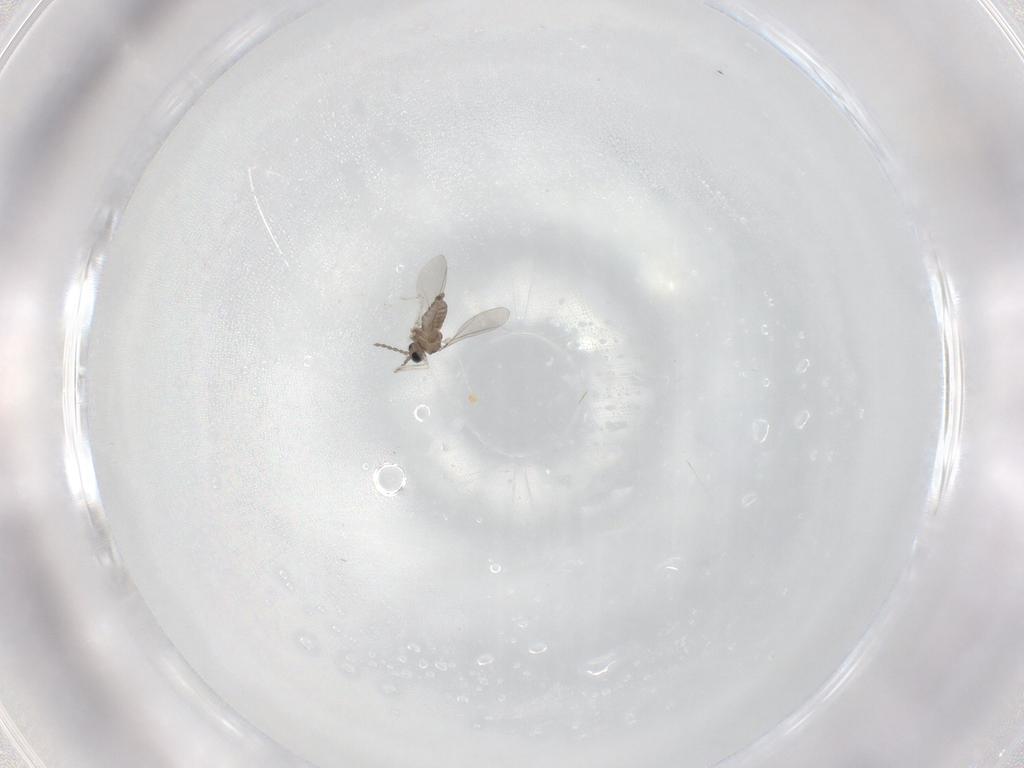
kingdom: Animalia
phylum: Arthropoda
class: Insecta
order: Diptera
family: Cecidomyiidae
